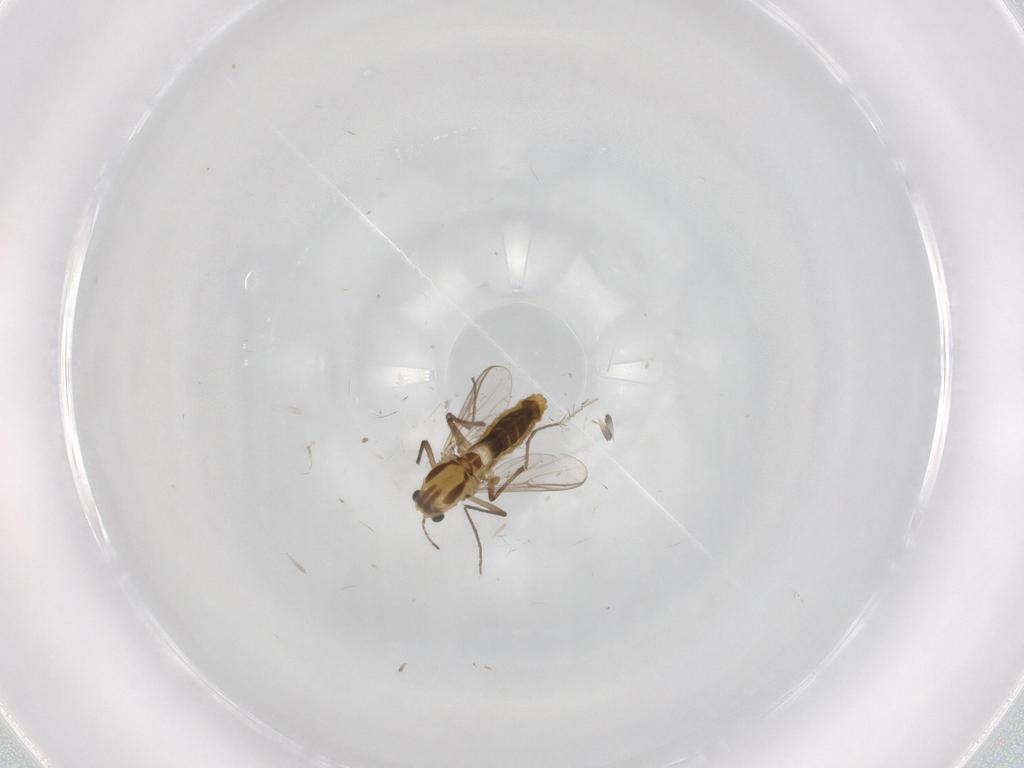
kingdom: Animalia
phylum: Arthropoda
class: Insecta
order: Diptera
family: Chironomidae
